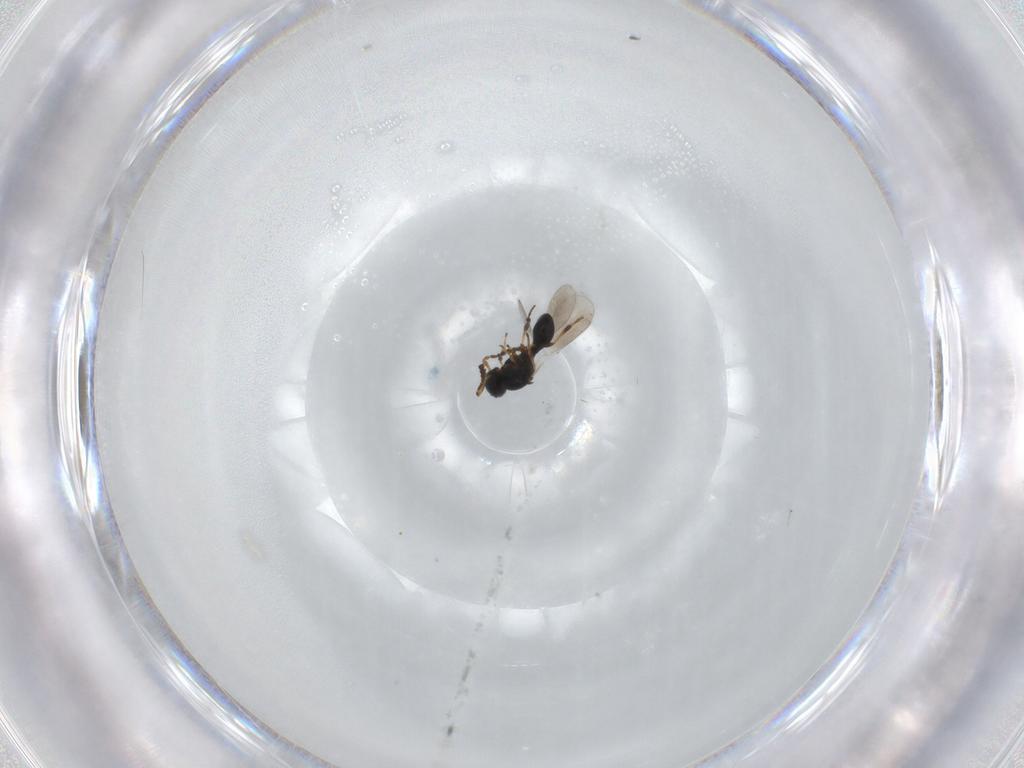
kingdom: Animalia
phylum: Arthropoda
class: Insecta
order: Hymenoptera
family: Platygastridae
